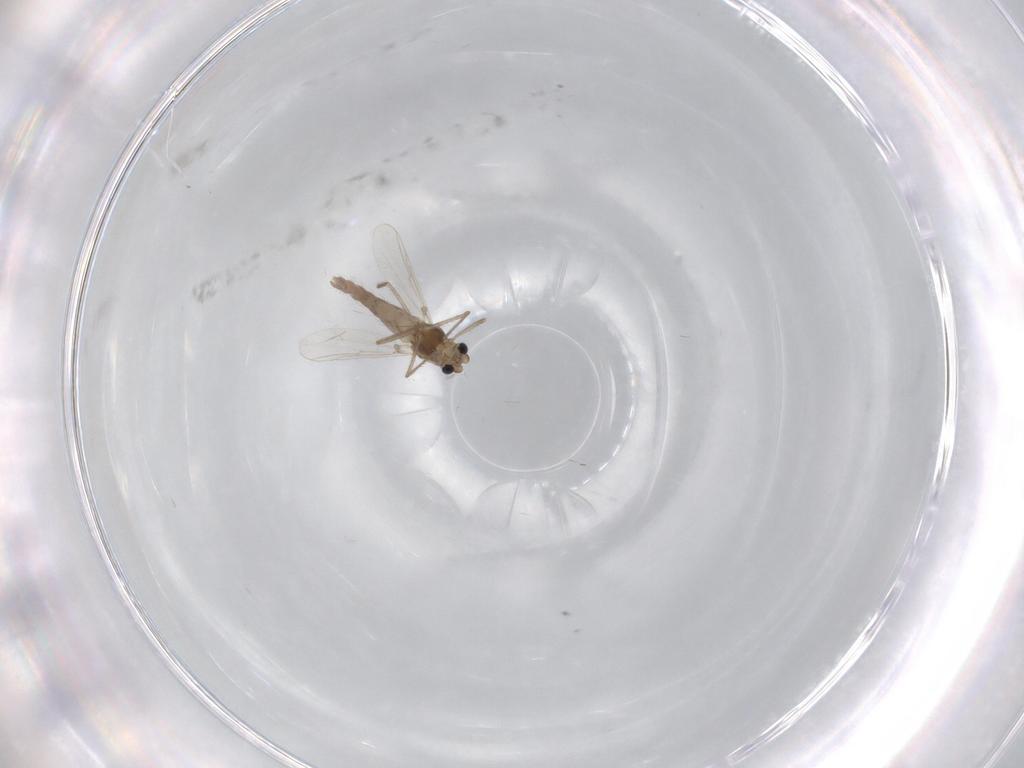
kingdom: Animalia
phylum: Arthropoda
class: Insecta
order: Diptera
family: Chironomidae
